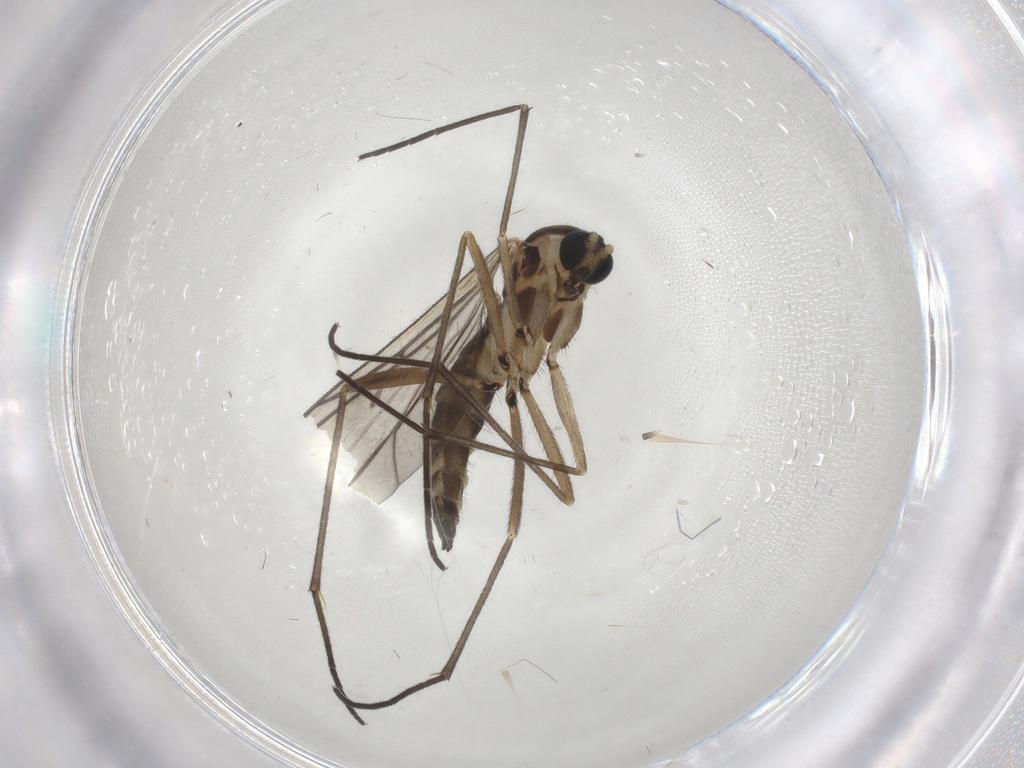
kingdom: Animalia
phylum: Arthropoda
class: Insecta
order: Diptera
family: Sciaridae
